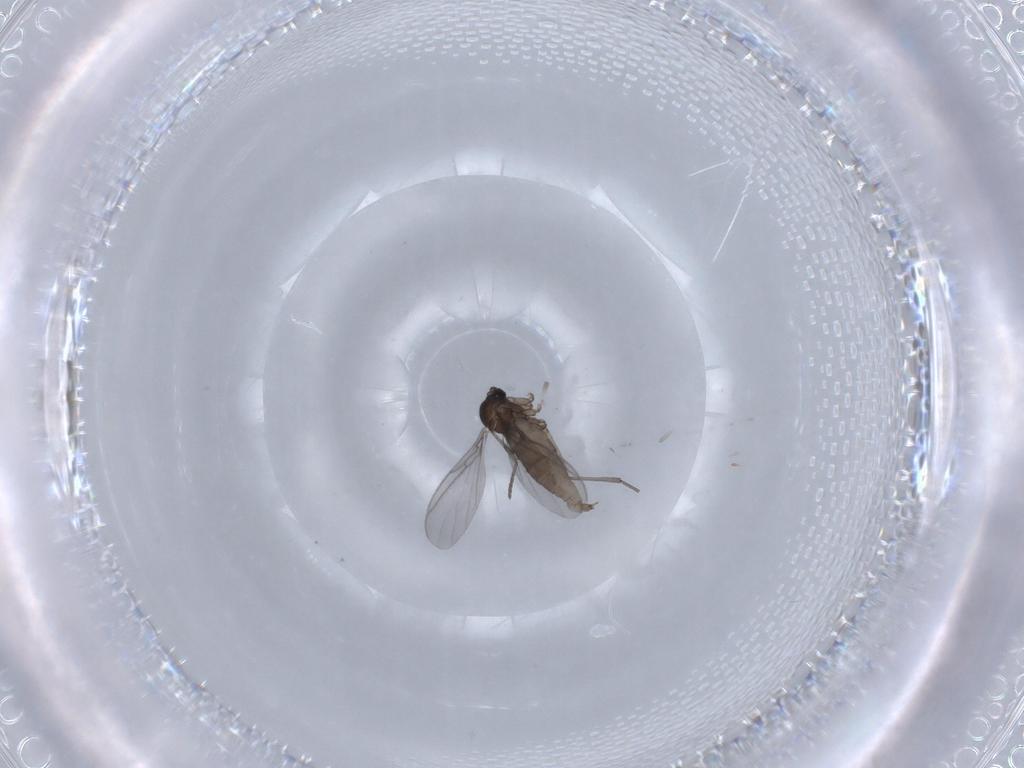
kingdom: Animalia
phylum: Arthropoda
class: Insecta
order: Diptera
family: Sciaridae
